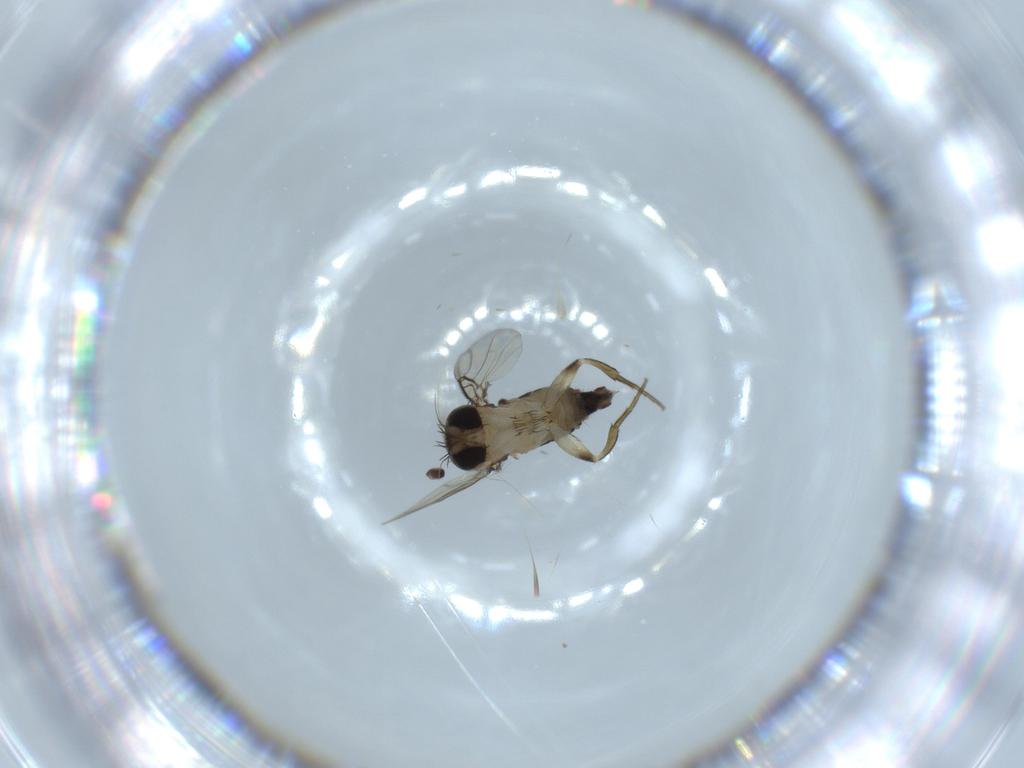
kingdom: Animalia
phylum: Arthropoda
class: Insecta
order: Diptera
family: Phoridae
